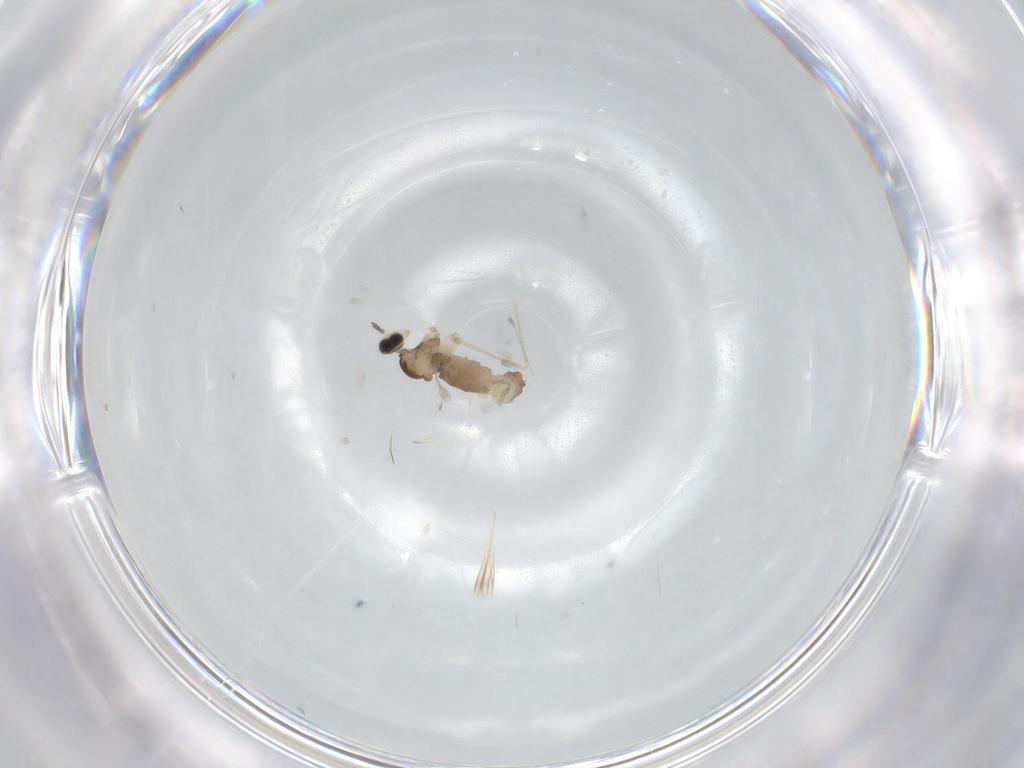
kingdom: Animalia
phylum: Arthropoda
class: Insecta
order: Diptera
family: Cecidomyiidae
